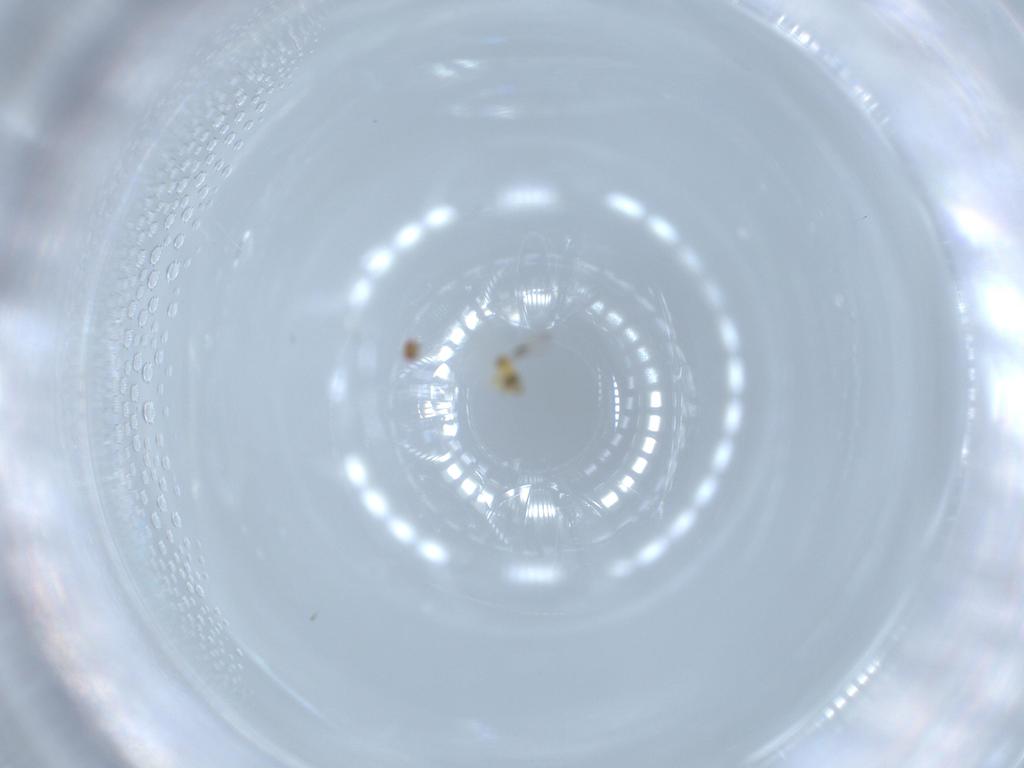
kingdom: Animalia
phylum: Arthropoda
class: Insecta
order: Hymenoptera
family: Trichogrammatidae
